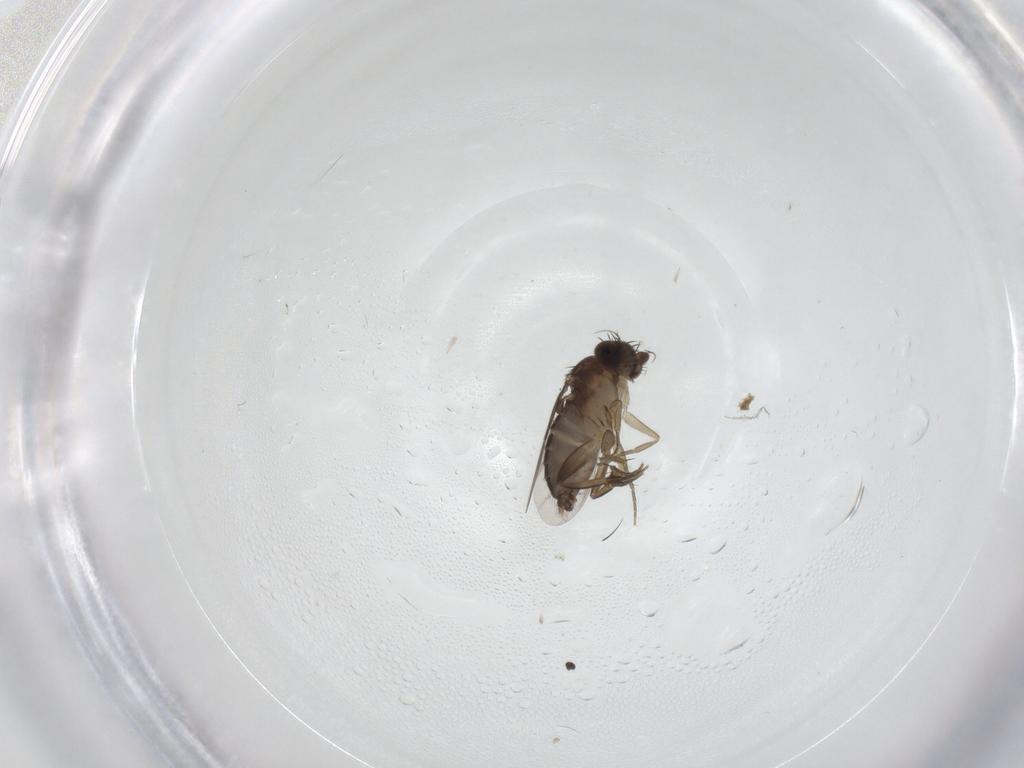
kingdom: Animalia
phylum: Arthropoda
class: Insecta
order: Diptera
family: Phoridae
